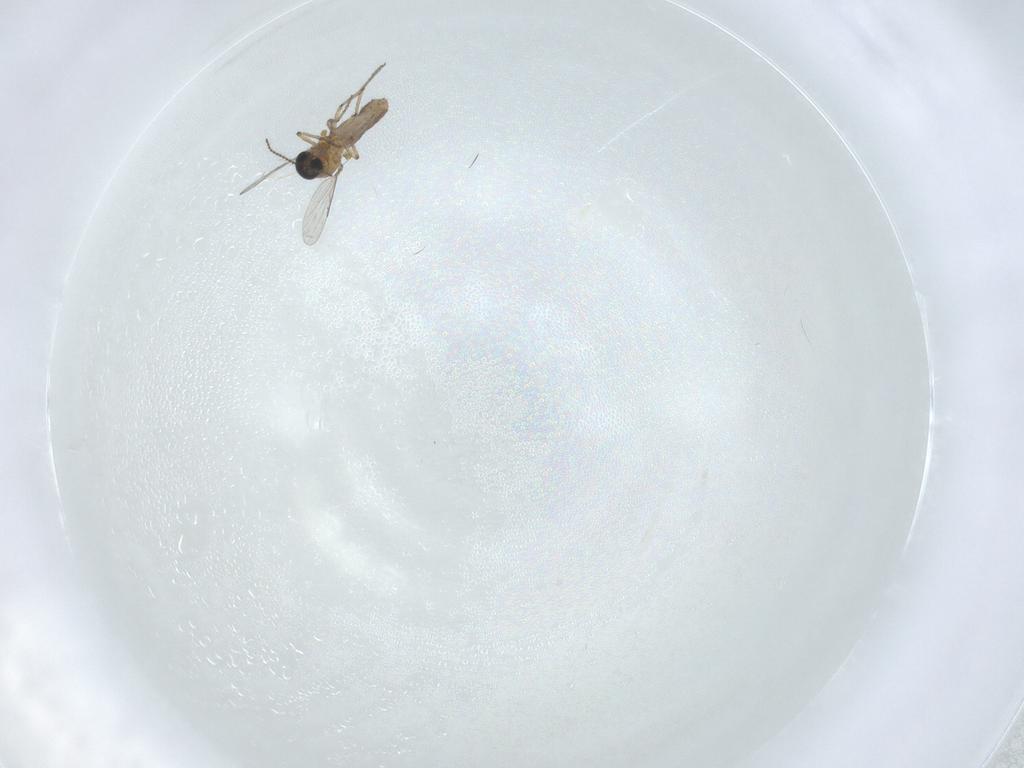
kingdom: Animalia
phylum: Arthropoda
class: Insecta
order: Diptera
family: Ceratopogonidae
